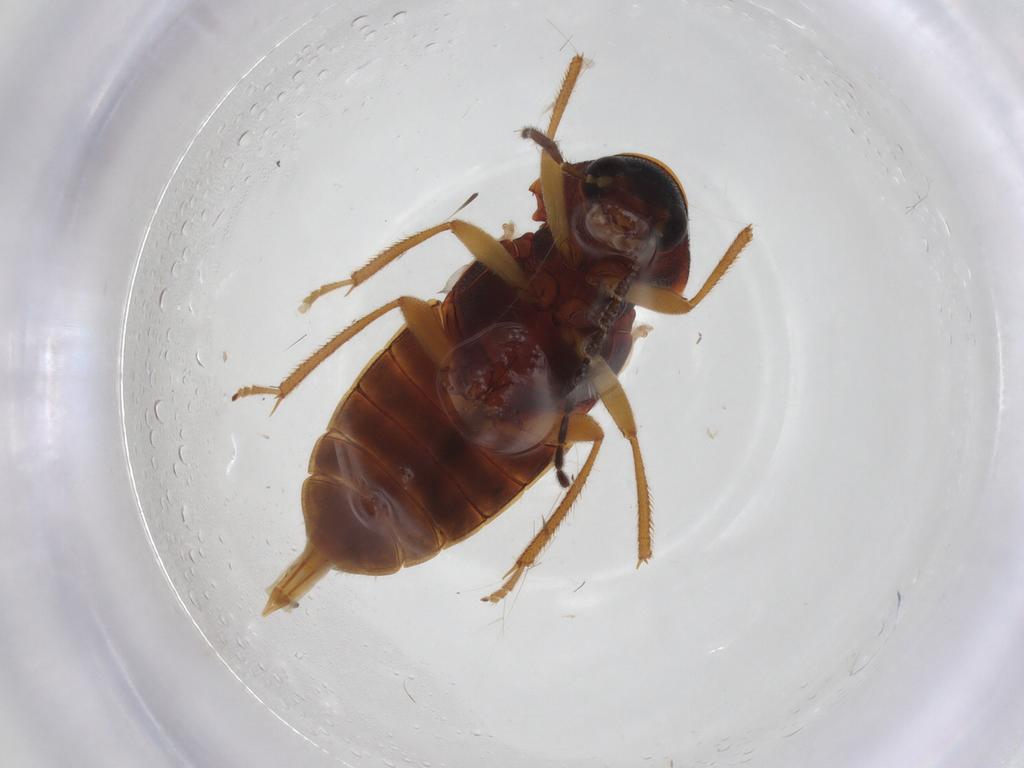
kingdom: Animalia
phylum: Arthropoda
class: Insecta
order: Coleoptera
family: Ptilodactylidae
